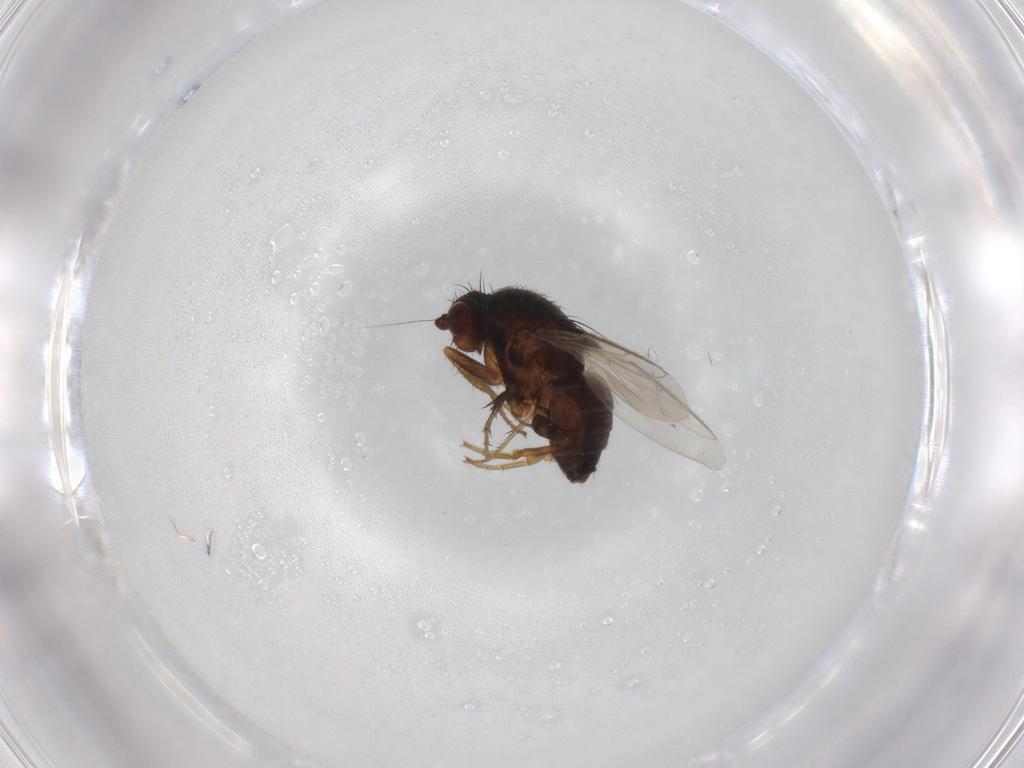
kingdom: Animalia
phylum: Arthropoda
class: Insecta
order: Diptera
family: Sphaeroceridae
